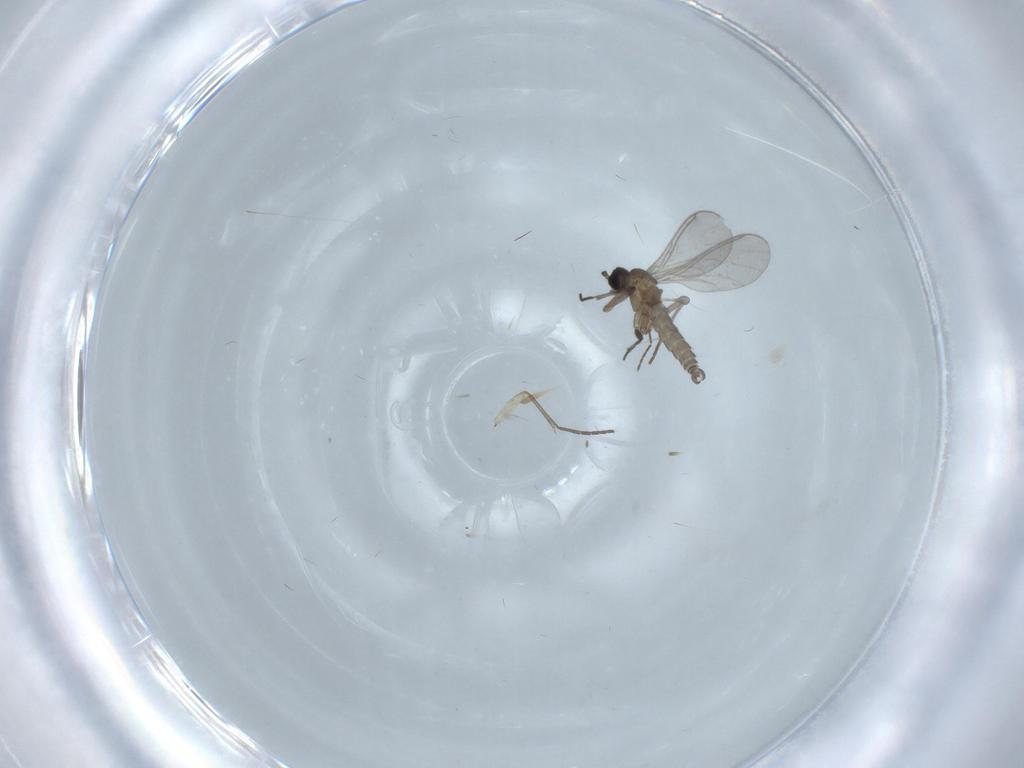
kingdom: Animalia
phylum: Arthropoda
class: Insecta
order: Diptera
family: Sciaridae
